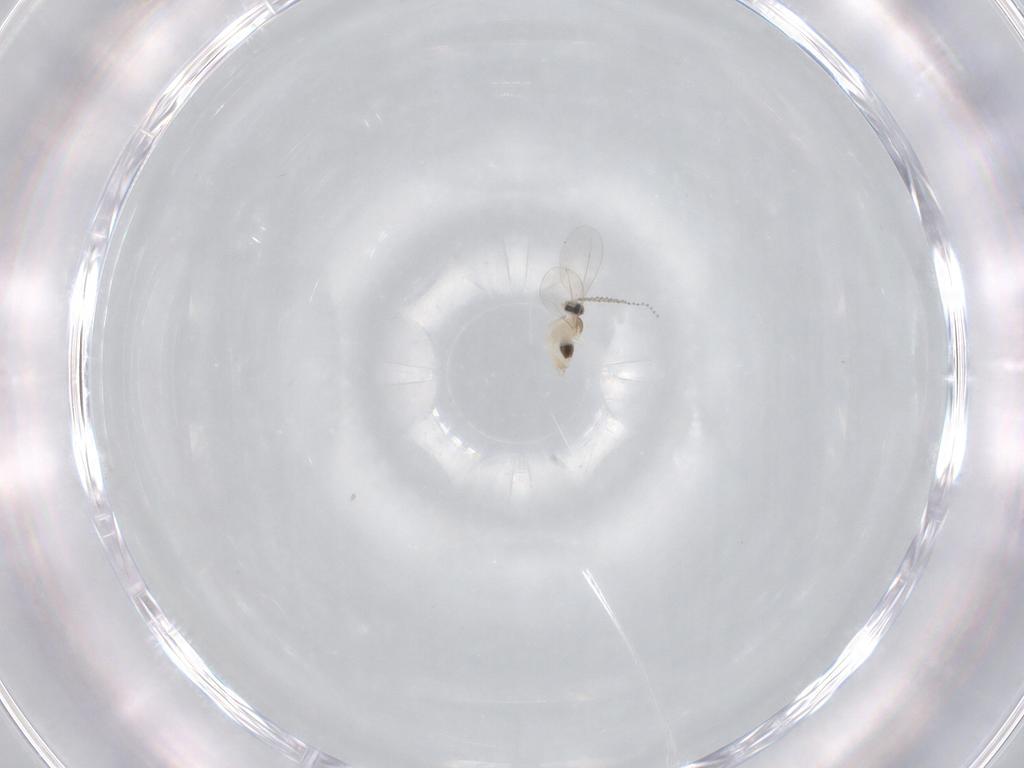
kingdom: Animalia
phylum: Arthropoda
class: Insecta
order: Diptera
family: Cecidomyiidae
